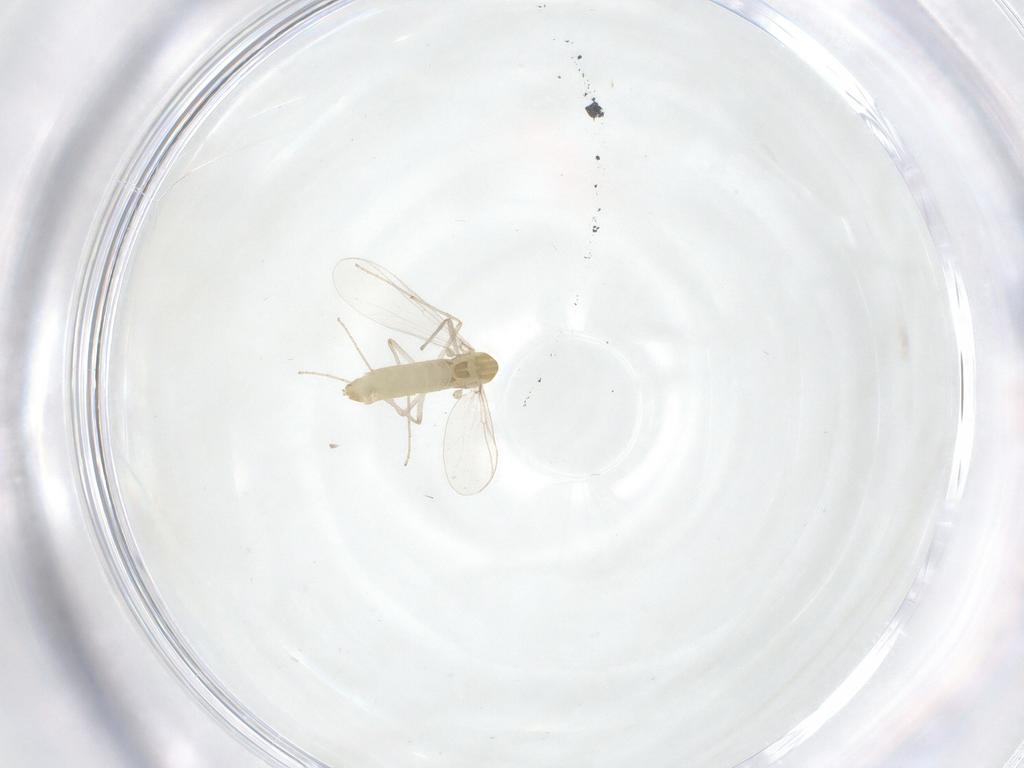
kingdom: Animalia
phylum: Arthropoda
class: Insecta
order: Diptera
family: Chironomidae
